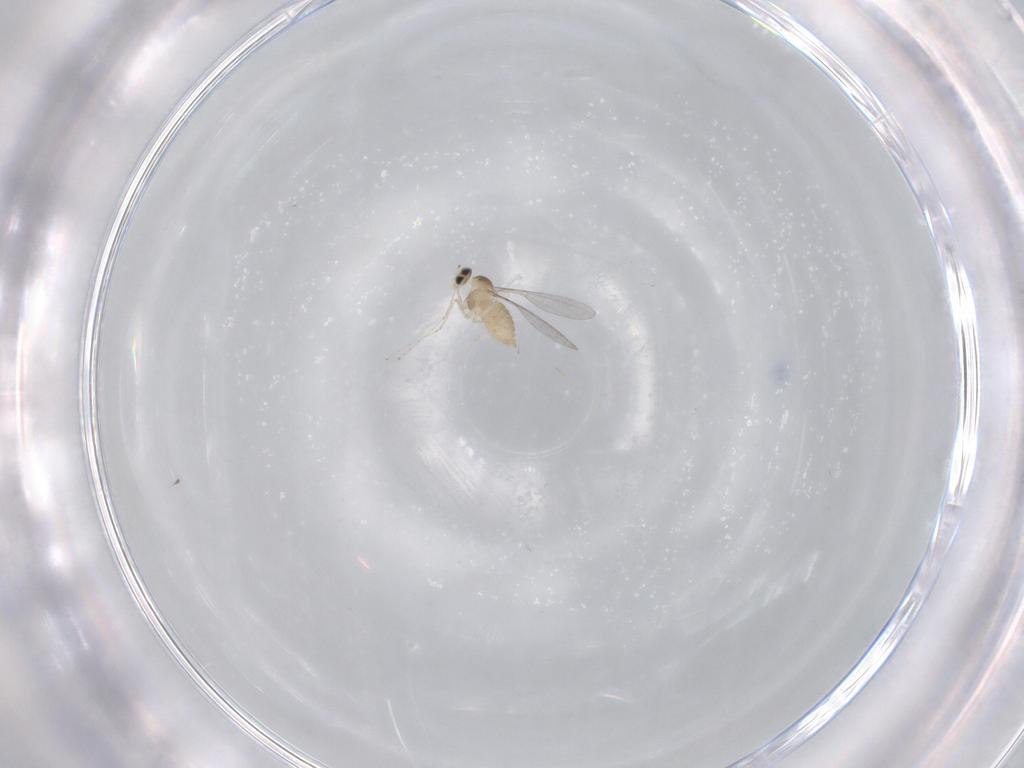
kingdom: Animalia
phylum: Arthropoda
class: Insecta
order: Diptera
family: Cecidomyiidae
